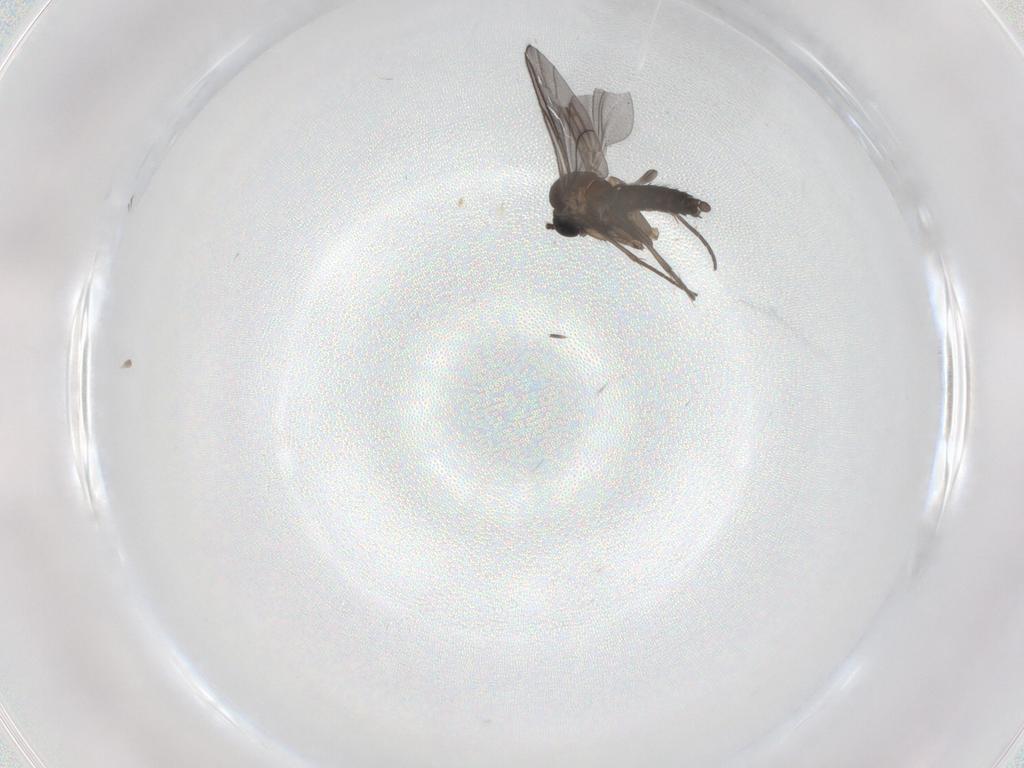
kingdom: Animalia
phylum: Arthropoda
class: Insecta
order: Diptera
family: Sciaridae
